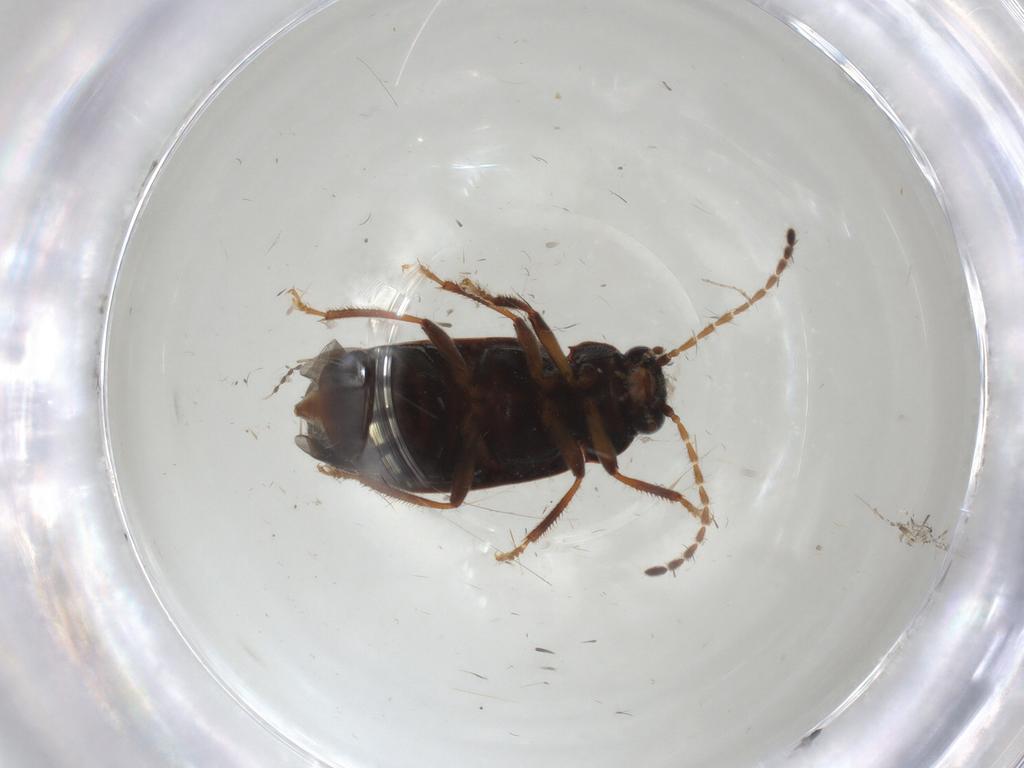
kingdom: Animalia
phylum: Arthropoda
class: Insecta
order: Coleoptera
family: Ptilodactylidae
